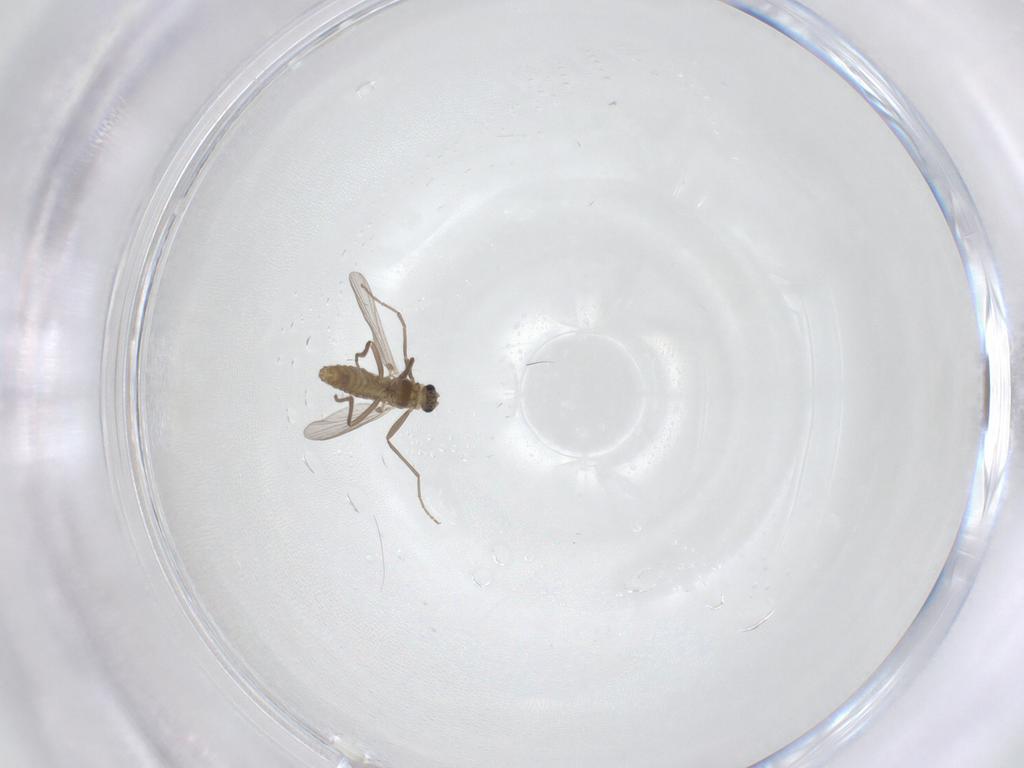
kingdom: Animalia
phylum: Arthropoda
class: Insecta
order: Diptera
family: Chironomidae
